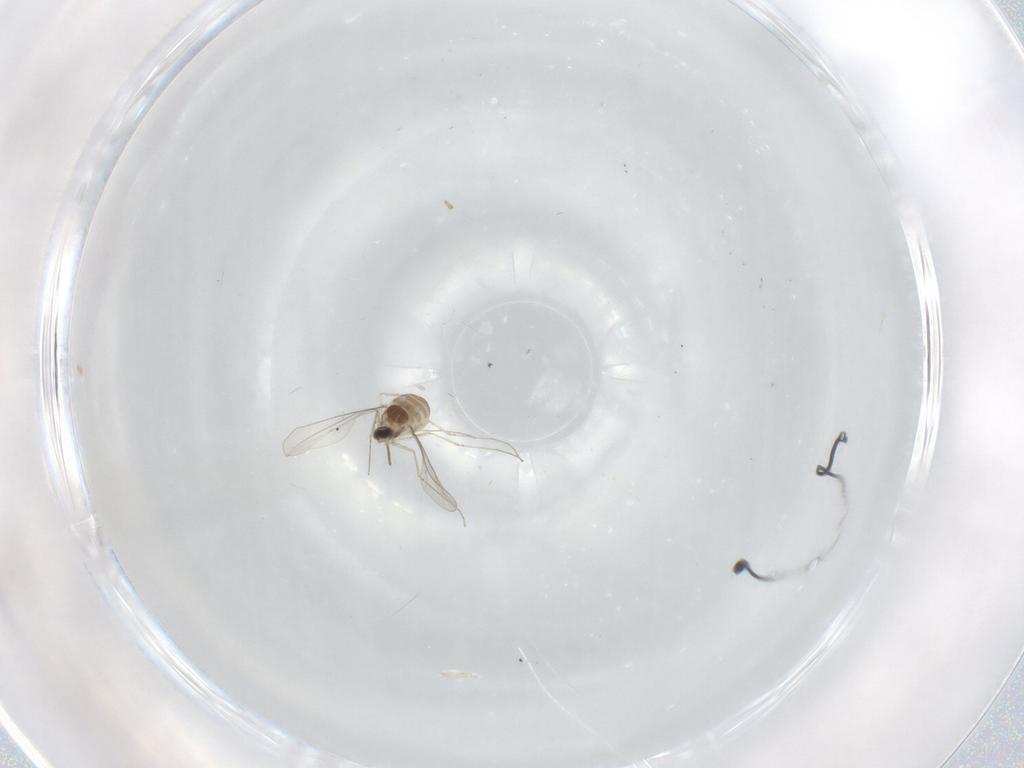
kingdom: Animalia
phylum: Arthropoda
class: Insecta
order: Diptera
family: Cecidomyiidae
